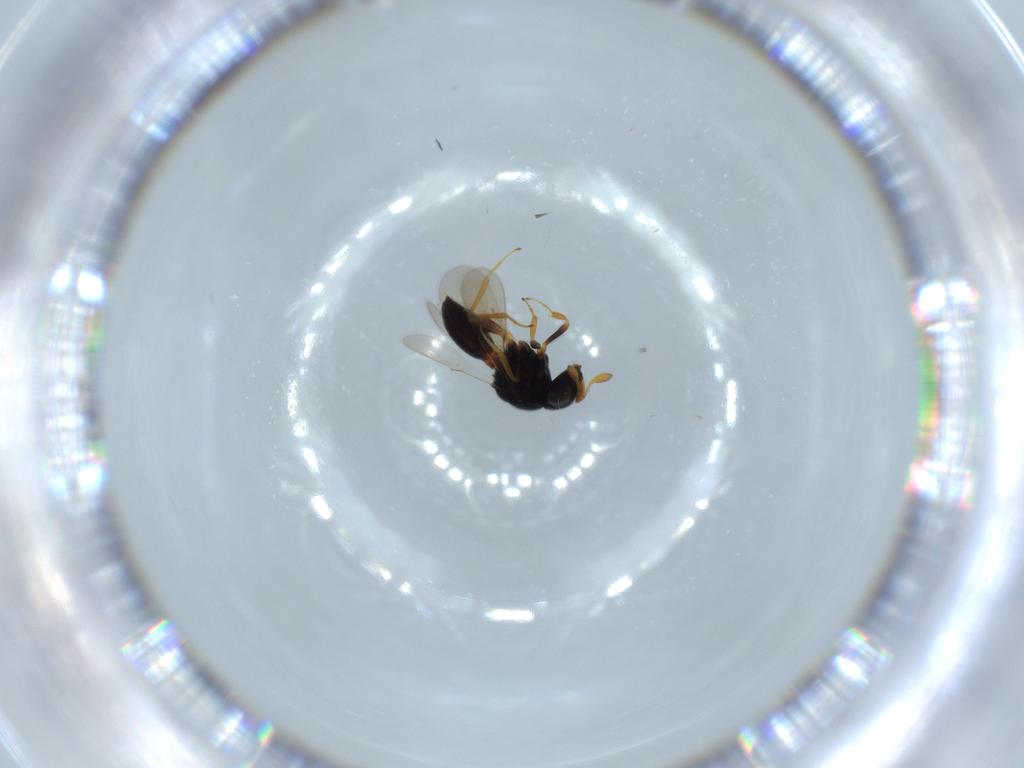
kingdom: Animalia
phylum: Arthropoda
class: Insecta
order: Hymenoptera
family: Scelionidae
